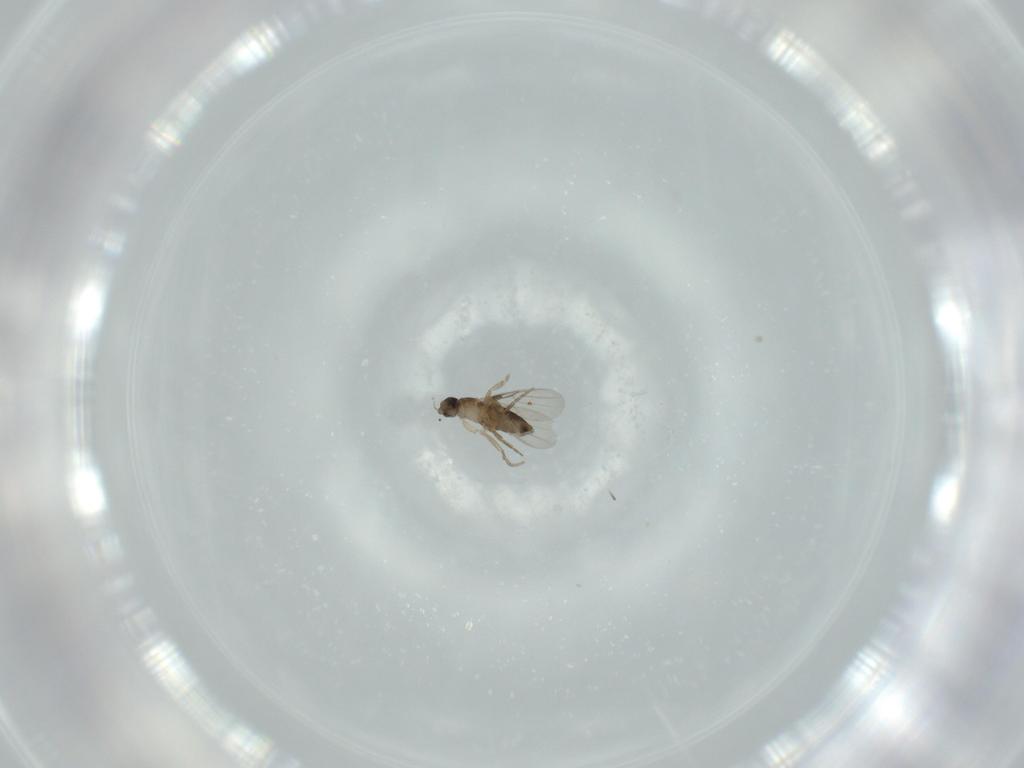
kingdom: Animalia
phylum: Arthropoda
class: Insecta
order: Diptera
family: Phoridae
